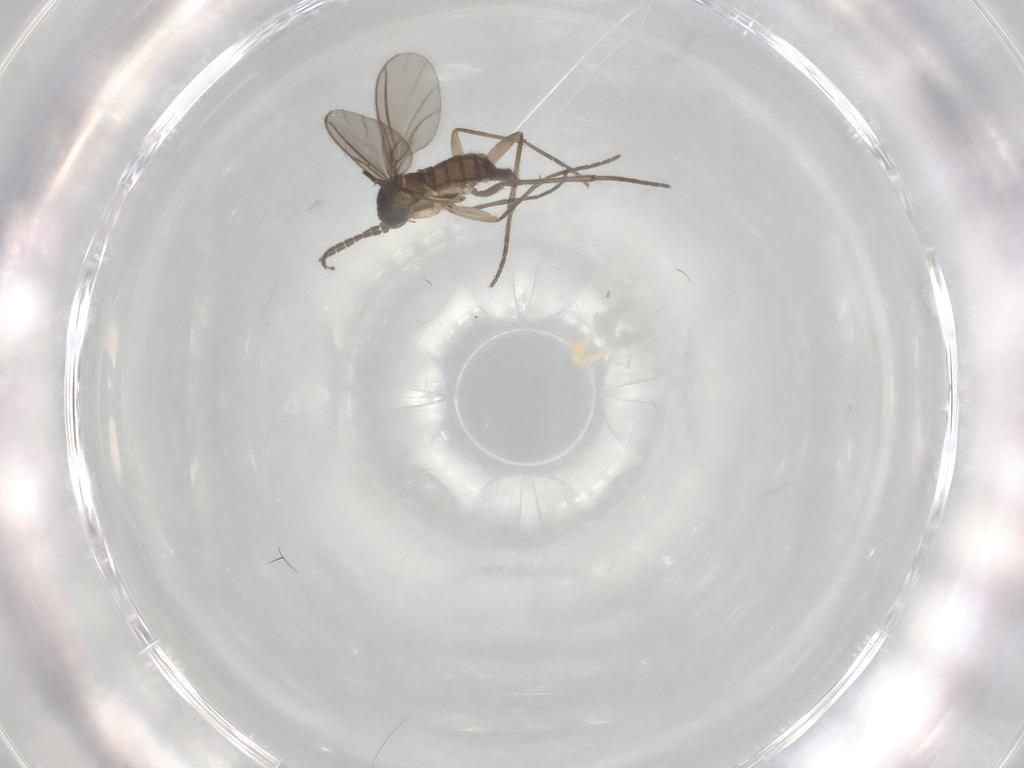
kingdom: Animalia
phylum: Arthropoda
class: Insecta
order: Diptera
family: Sciaridae
